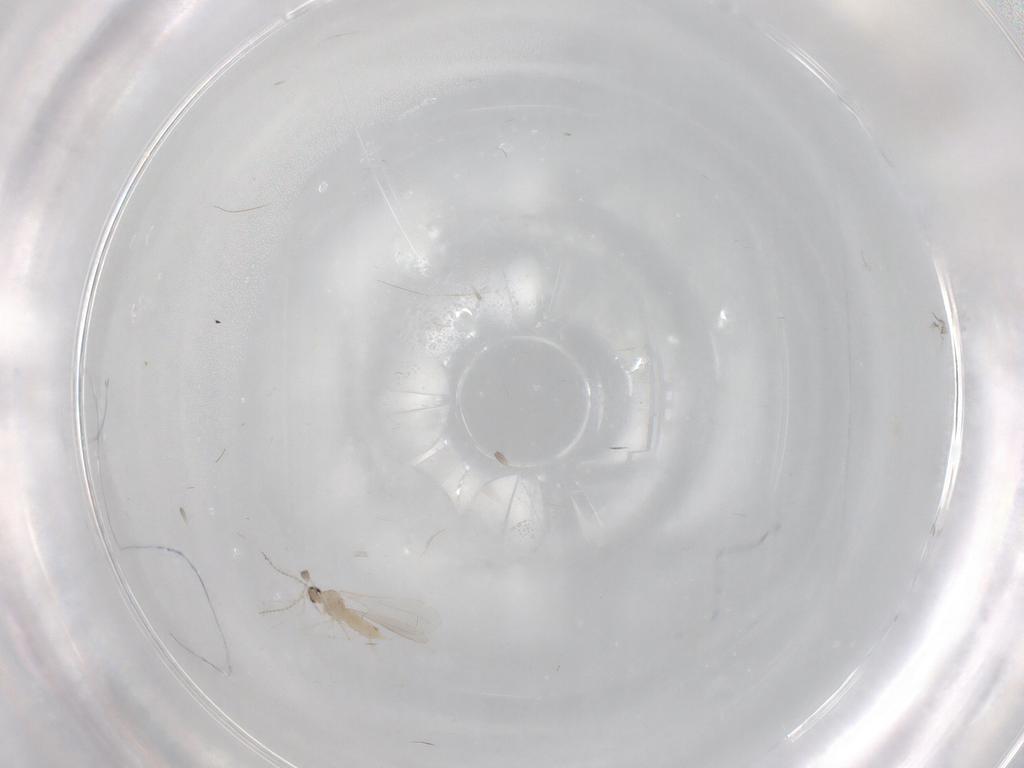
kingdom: Animalia
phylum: Arthropoda
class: Insecta
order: Diptera
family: Cecidomyiidae
